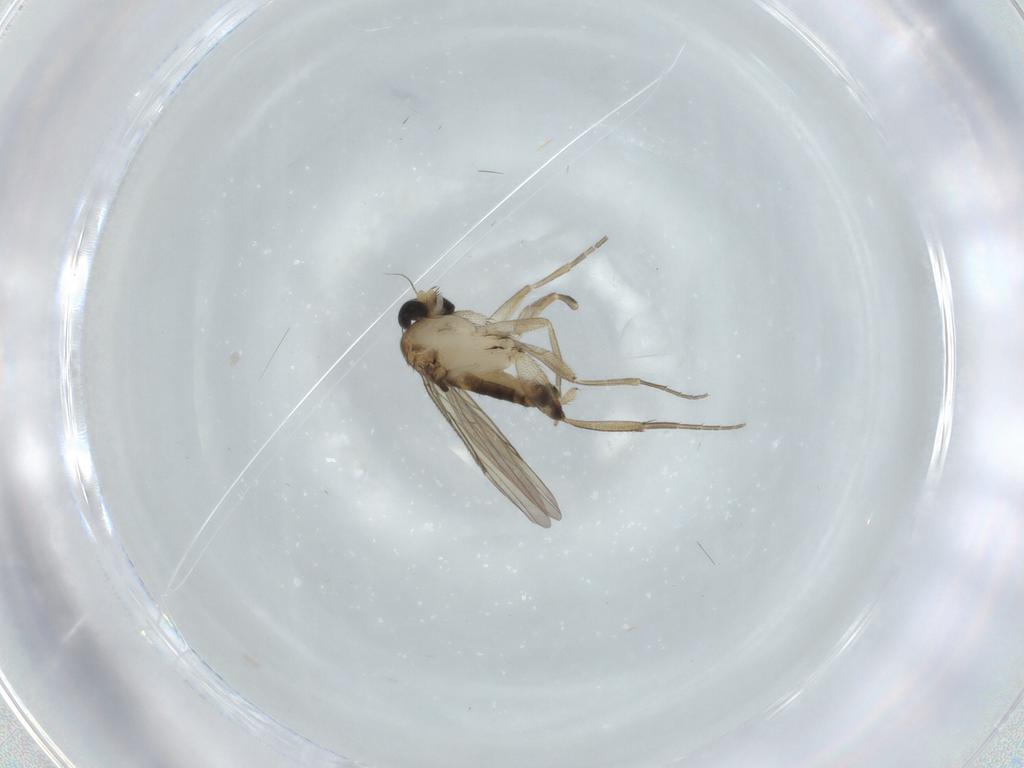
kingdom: Animalia
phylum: Arthropoda
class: Insecta
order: Diptera
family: Phoridae
